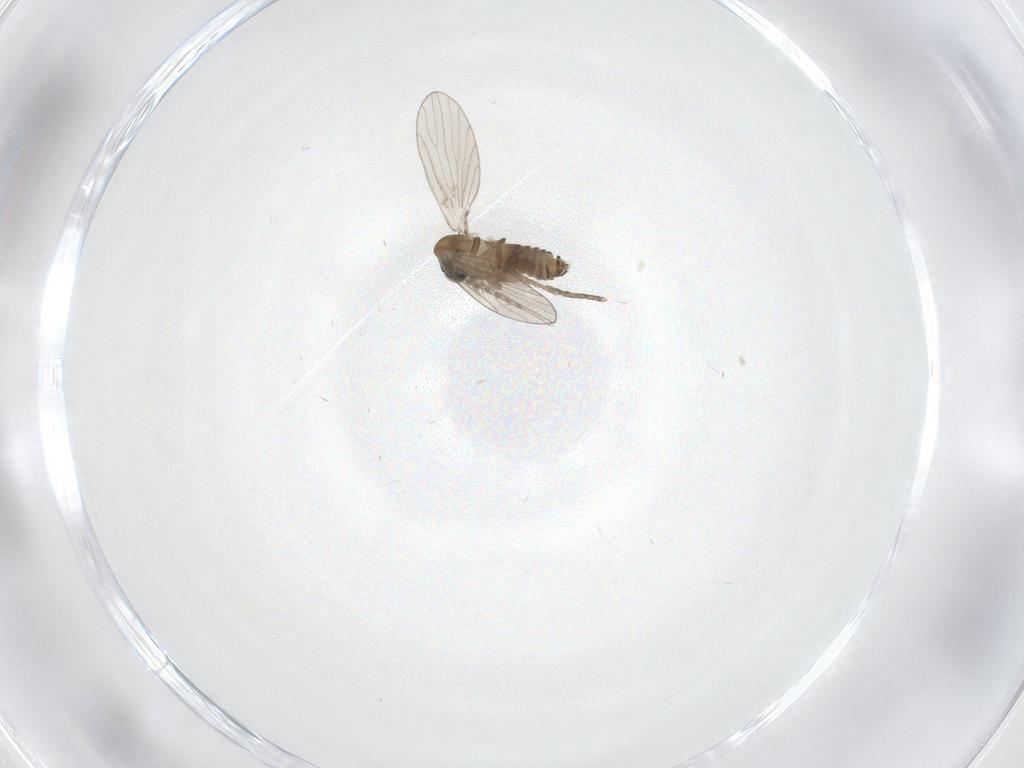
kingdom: Animalia
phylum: Arthropoda
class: Insecta
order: Diptera
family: Psychodidae
